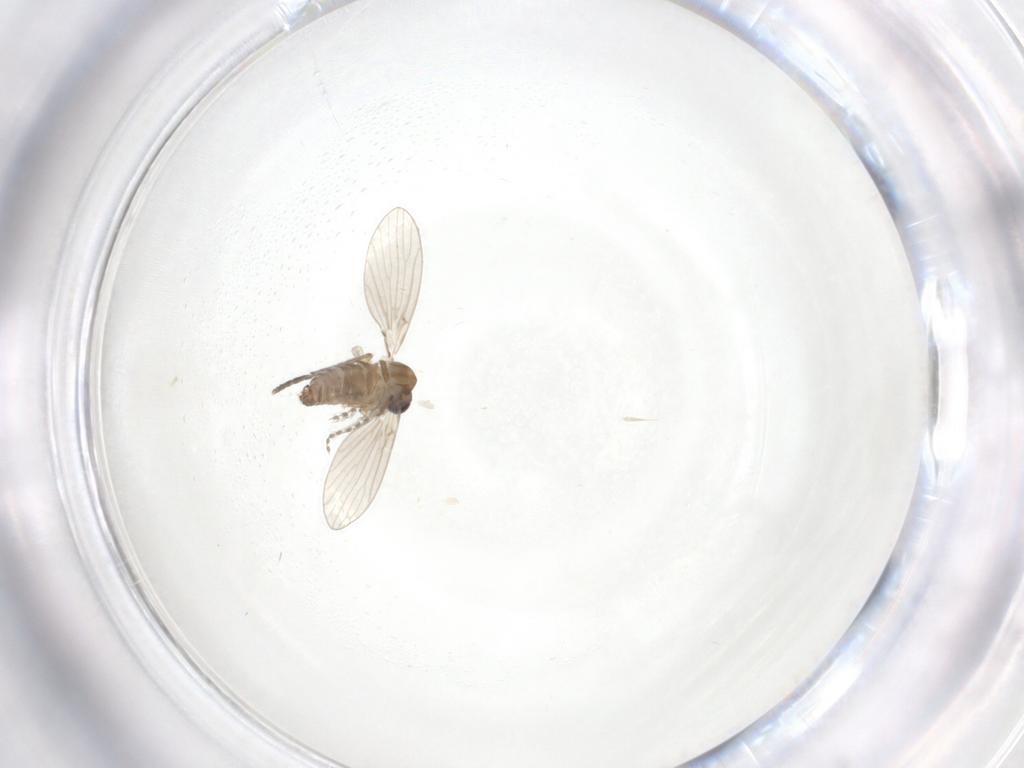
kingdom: Animalia
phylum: Arthropoda
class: Insecta
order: Diptera
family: Psychodidae
